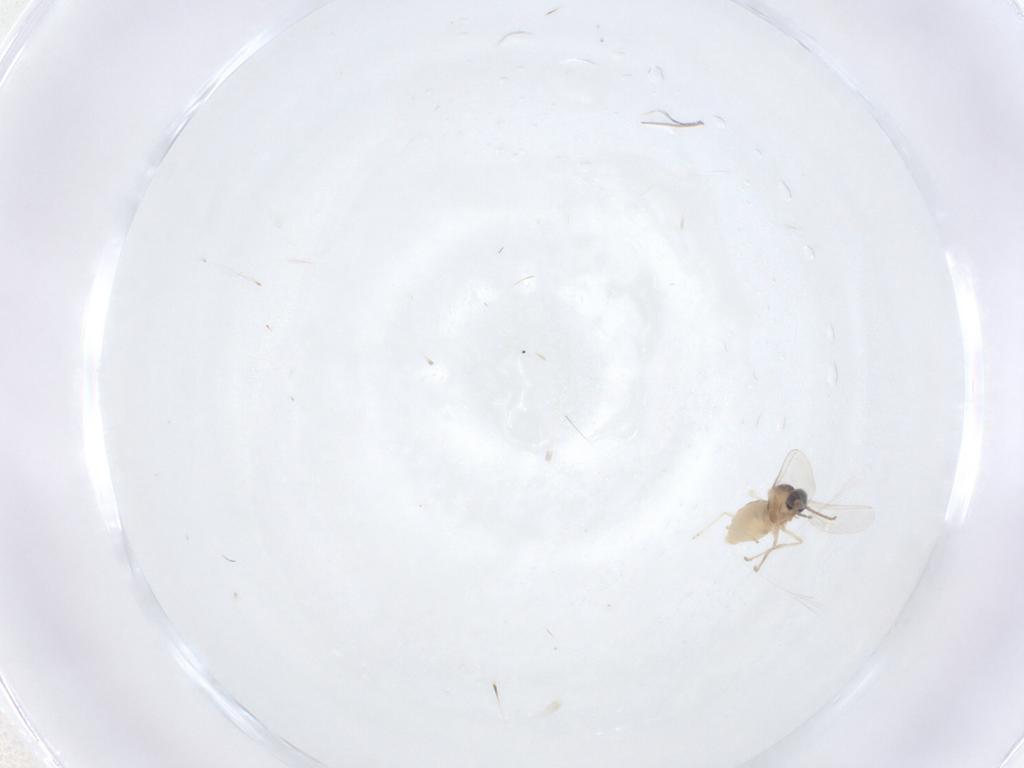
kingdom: Animalia
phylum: Arthropoda
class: Insecta
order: Diptera
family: Cecidomyiidae
